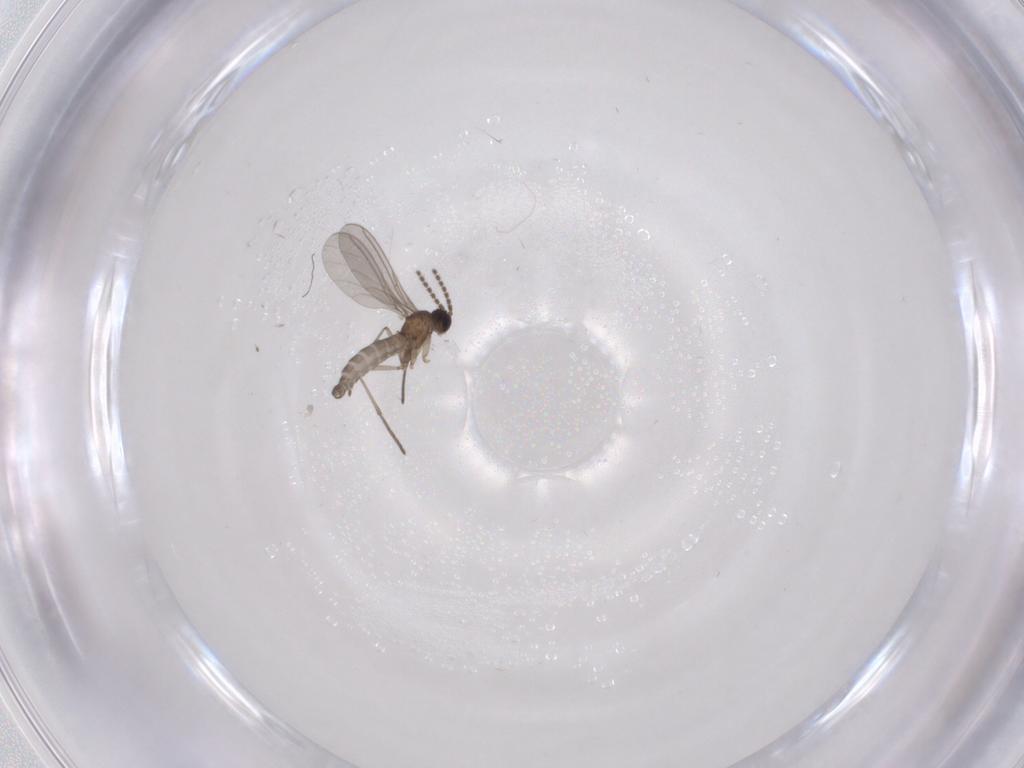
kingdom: Animalia
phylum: Arthropoda
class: Insecta
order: Diptera
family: Sciaridae
